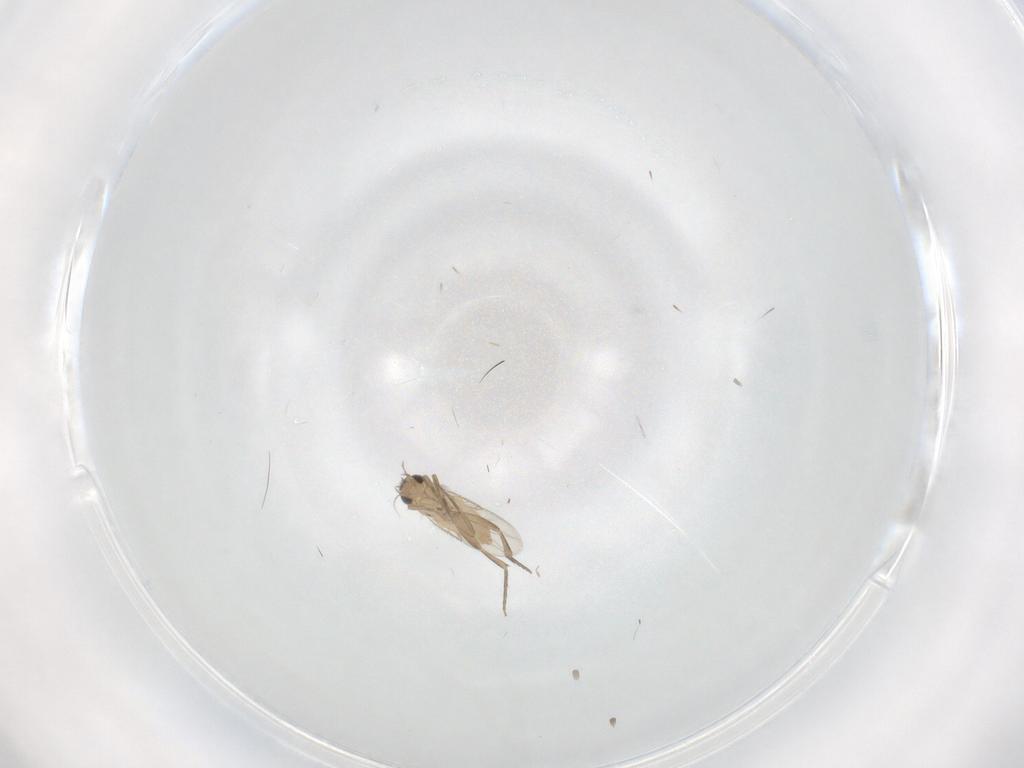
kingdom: Animalia
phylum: Arthropoda
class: Insecta
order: Diptera
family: Phoridae
